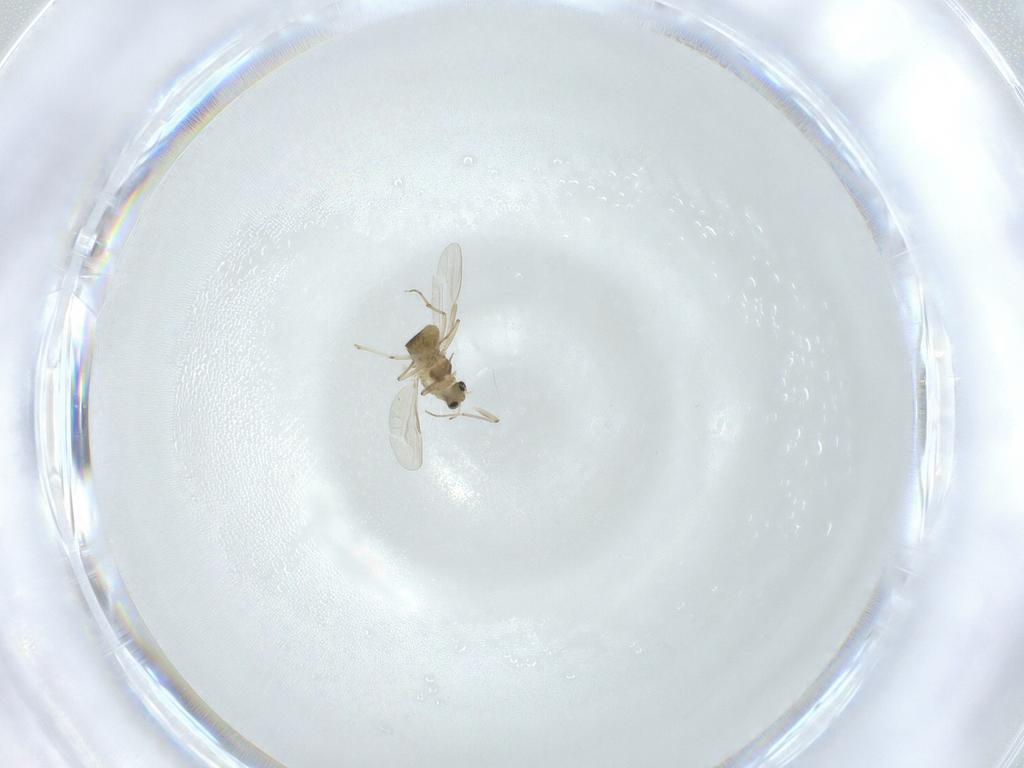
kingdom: Animalia
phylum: Arthropoda
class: Insecta
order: Diptera
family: Chironomidae
